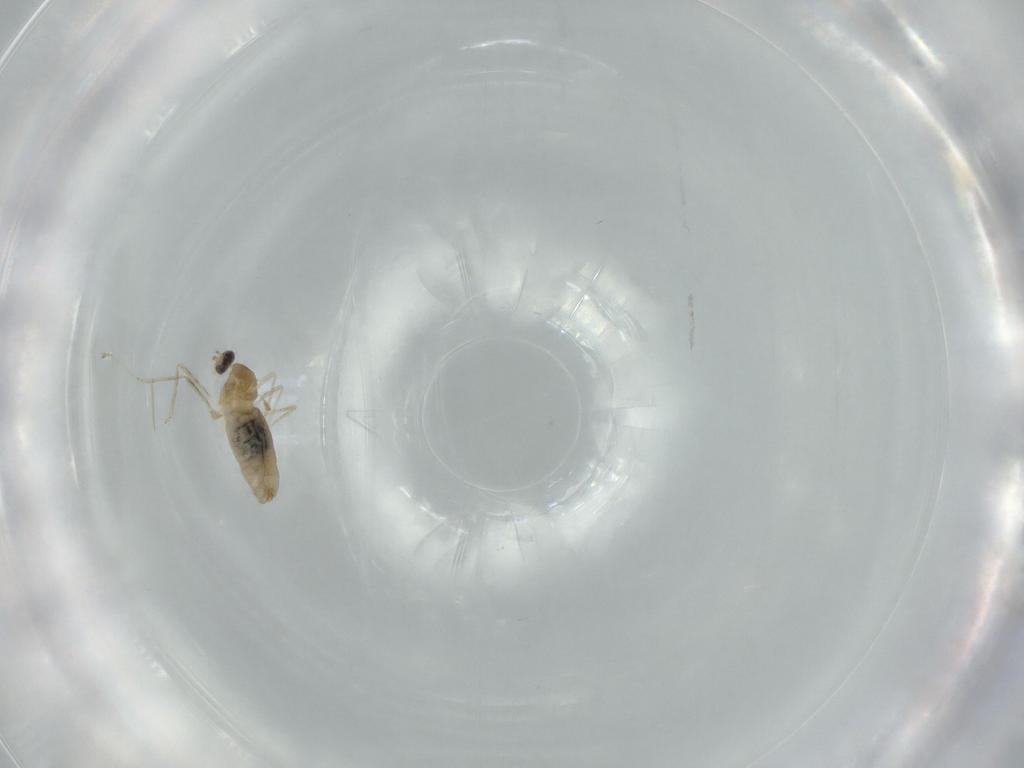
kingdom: Animalia
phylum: Arthropoda
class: Insecta
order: Diptera
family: Cecidomyiidae
